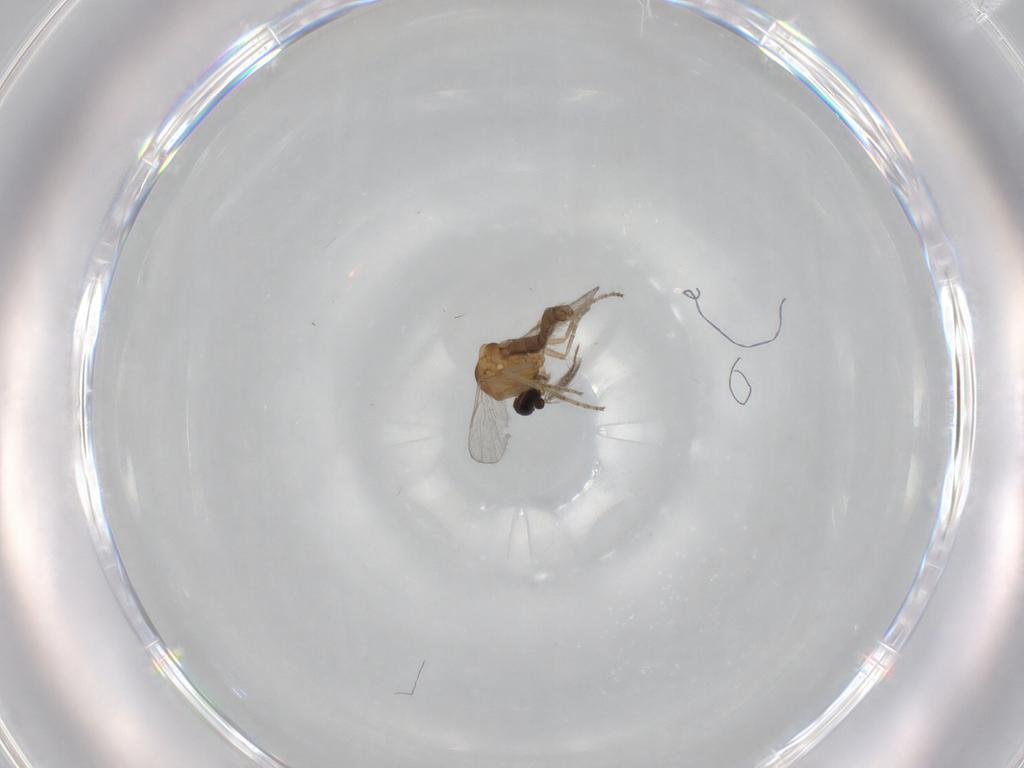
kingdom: Animalia
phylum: Arthropoda
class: Insecta
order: Diptera
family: Ceratopogonidae
